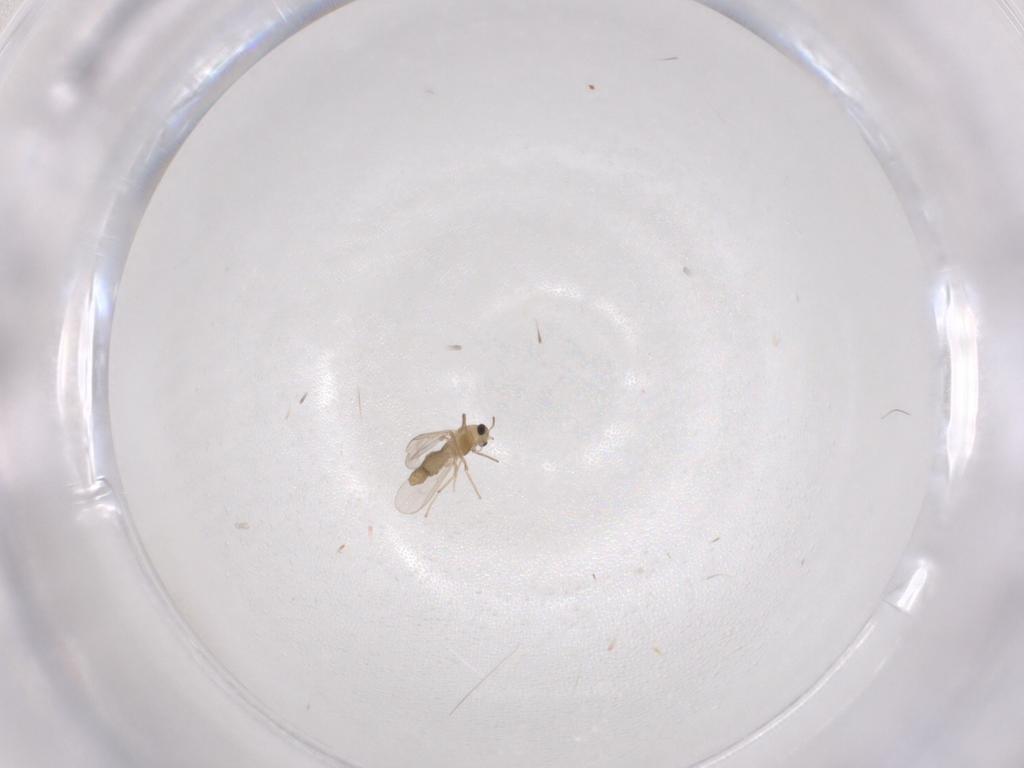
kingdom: Animalia
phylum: Arthropoda
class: Insecta
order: Diptera
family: Chironomidae
